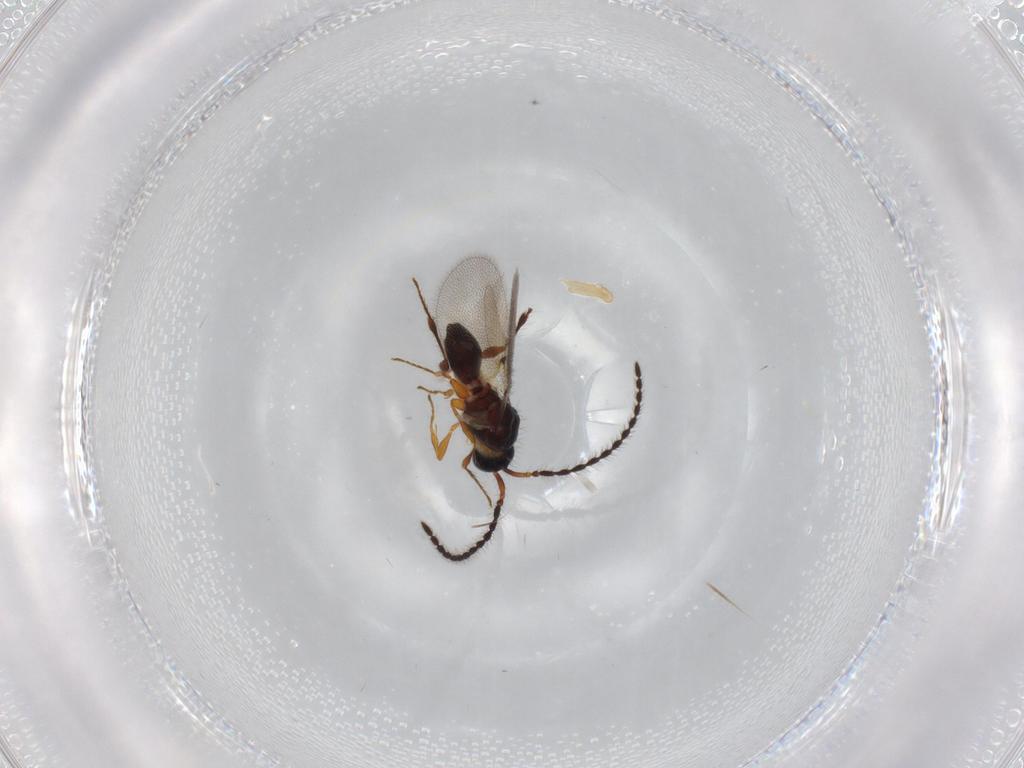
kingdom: Animalia
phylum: Arthropoda
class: Insecta
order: Hymenoptera
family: Diapriidae
